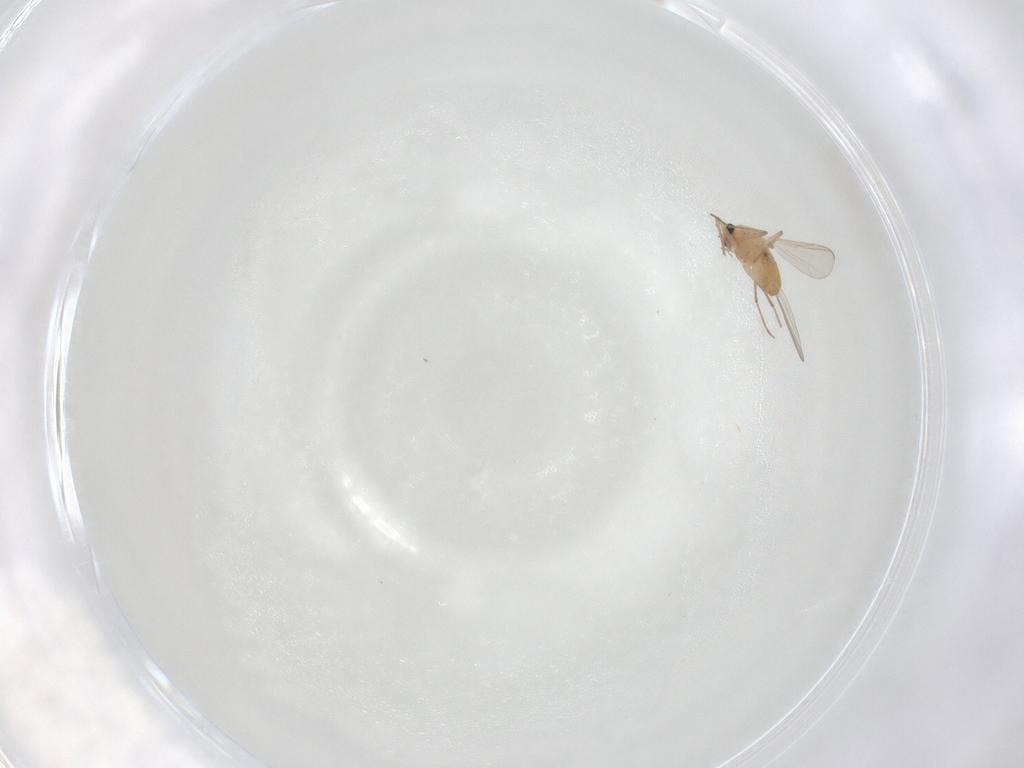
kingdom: Animalia
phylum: Arthropoda
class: Insecta
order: Diptera
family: Chironomidae
